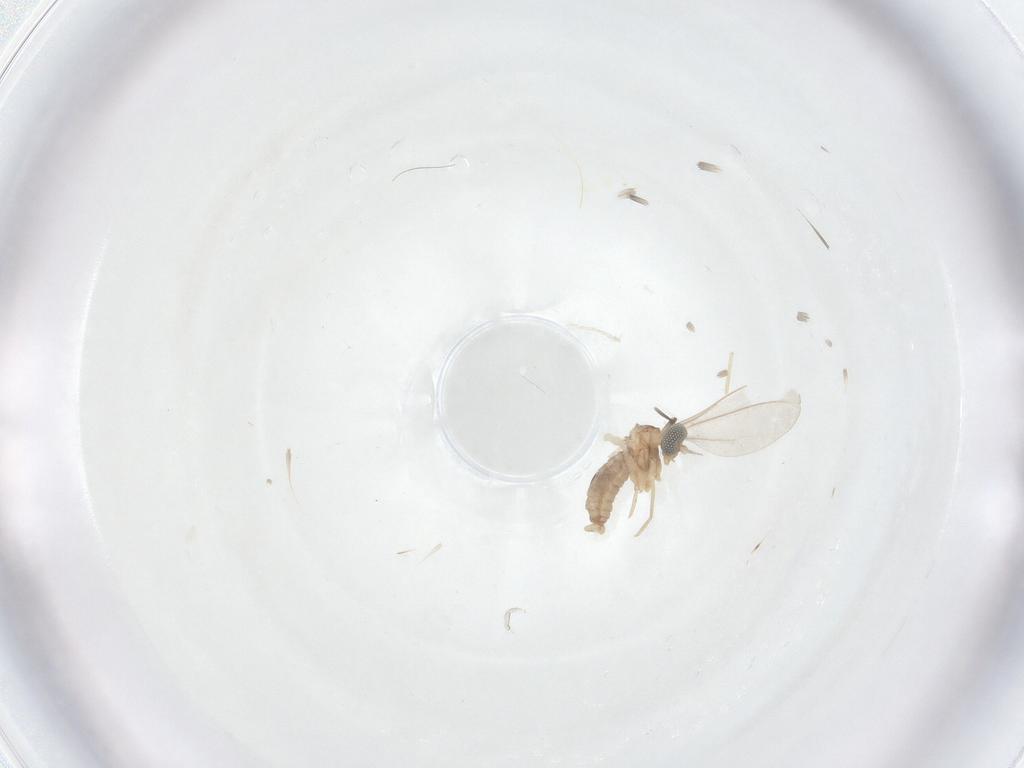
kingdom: Animalia
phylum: Arthropoda
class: Insecta
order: Diptera
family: Cecidomyiidae
